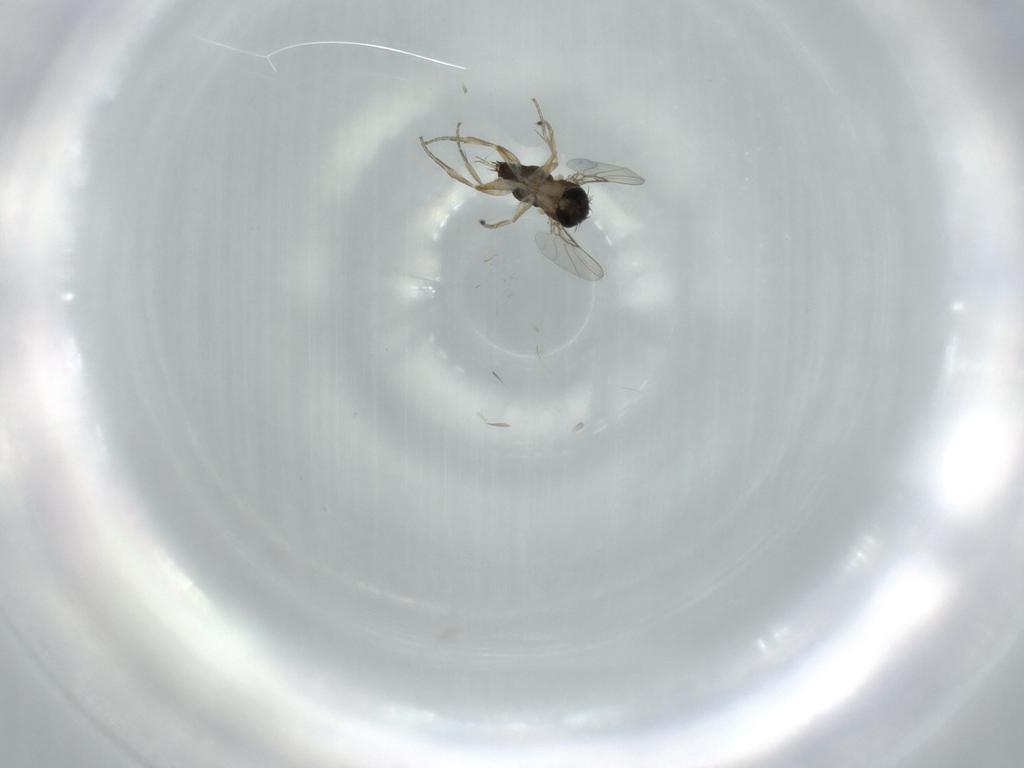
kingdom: Animalia
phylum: Arthropoda
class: Insecta
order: Diptera
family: Phoridae
